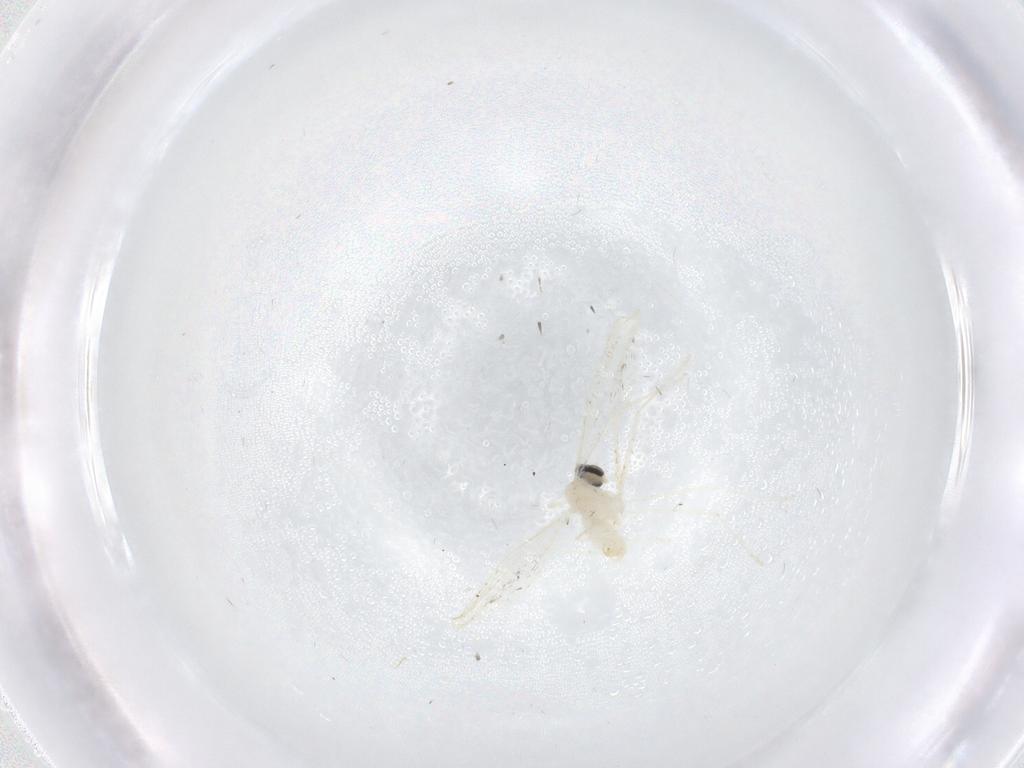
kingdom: Animalia
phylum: Arthropoda
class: Insecta
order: Diptera
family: Cecidomyiidae
